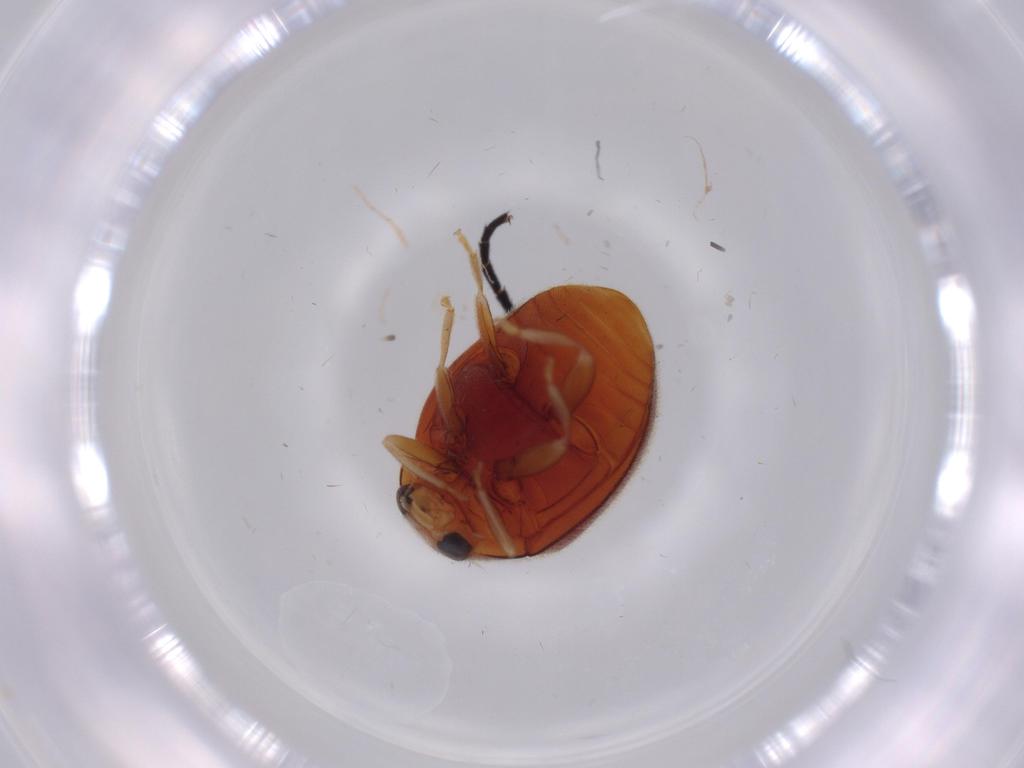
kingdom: Animalia
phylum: Arthropoda
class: Insecta
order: Coleoptera
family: Coccinellidae
